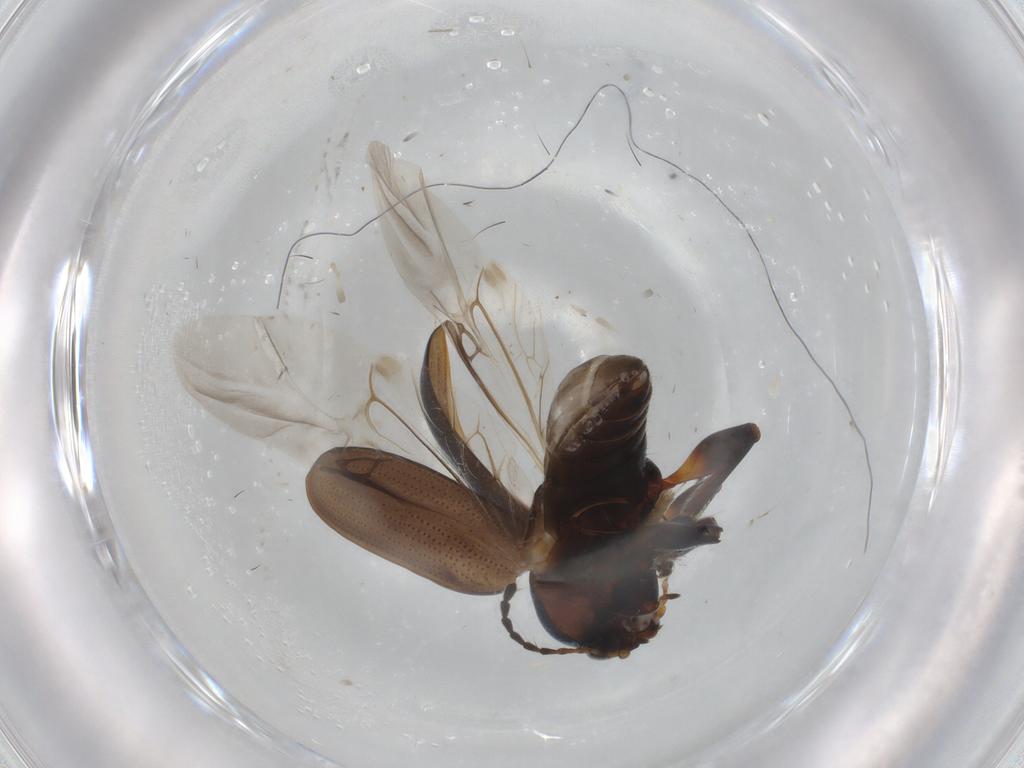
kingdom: Animalia
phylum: Arthropoda
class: Insecta
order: Coleoptera
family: Chrysomelidae
